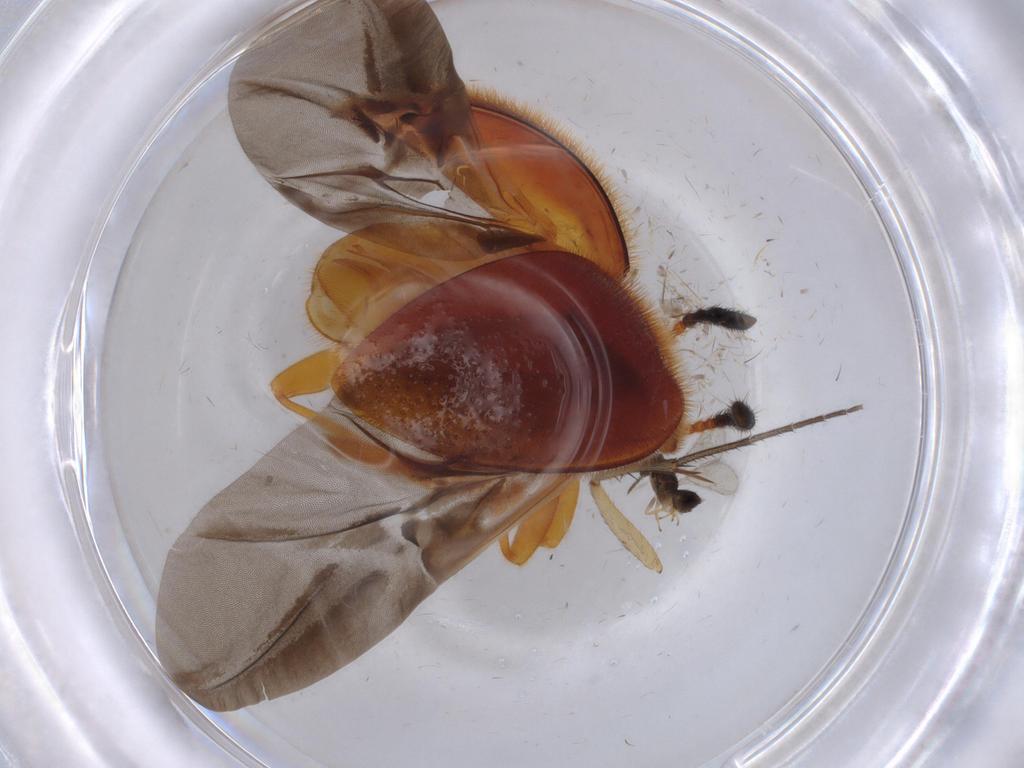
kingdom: Animalia
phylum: Arthropoda
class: Insecta
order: Coleoptera
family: Endomychidae
